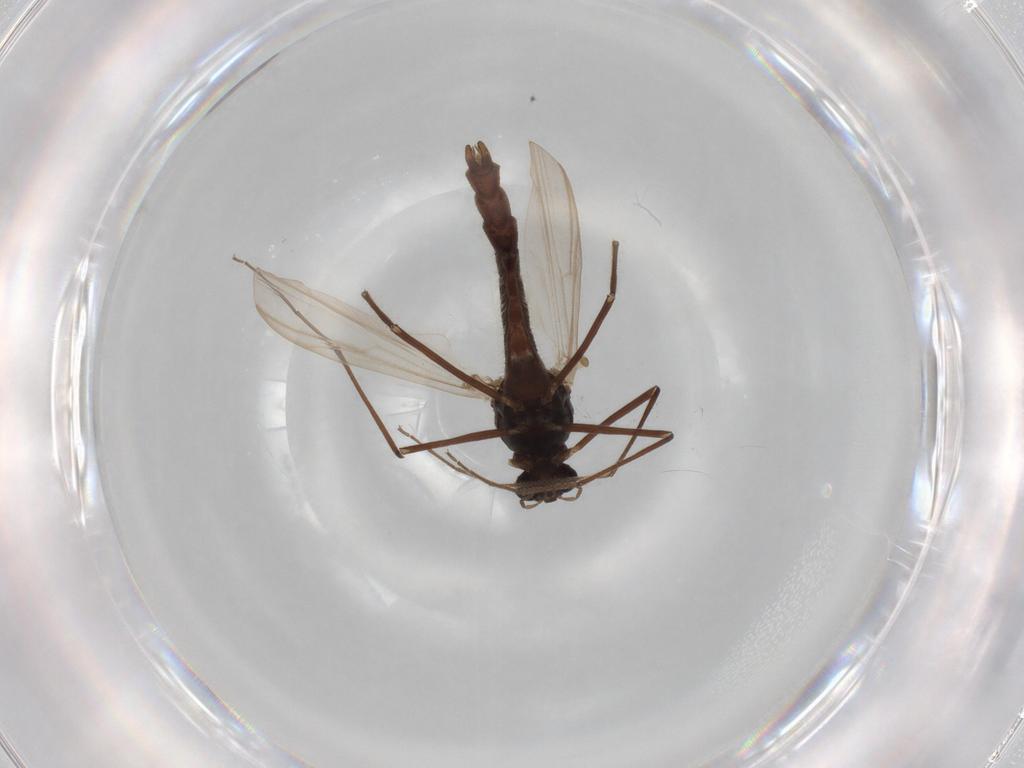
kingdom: Animalia
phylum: Arthropoda
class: Insecta
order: Diptera
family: Psychodidae
